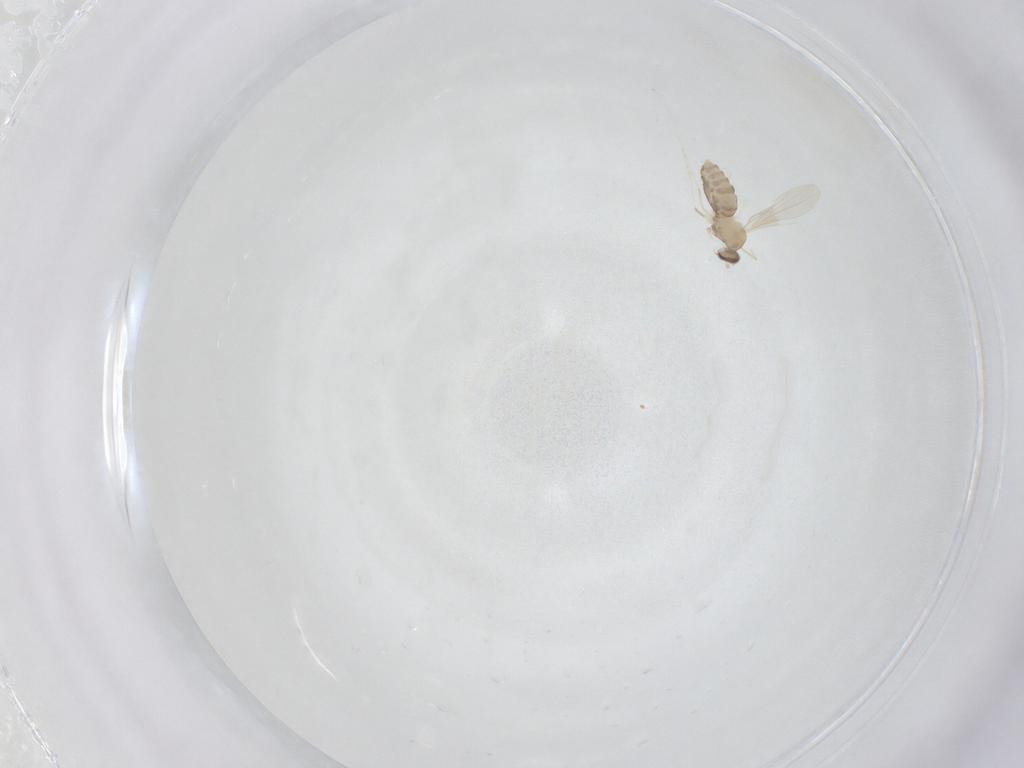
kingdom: Animalia
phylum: Arthropoda
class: Insecta
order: Diptera
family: Cecidomyiidae
